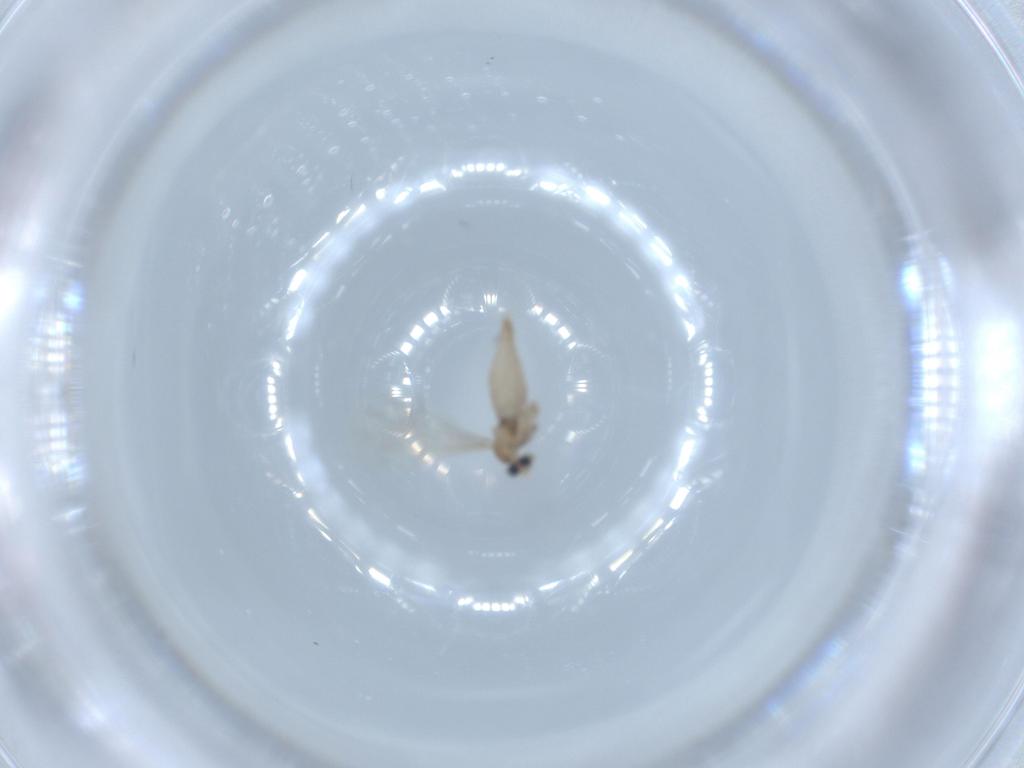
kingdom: Animalia
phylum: Arthropoda
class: Insecta
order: Diptera
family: Cecidomyiidae
